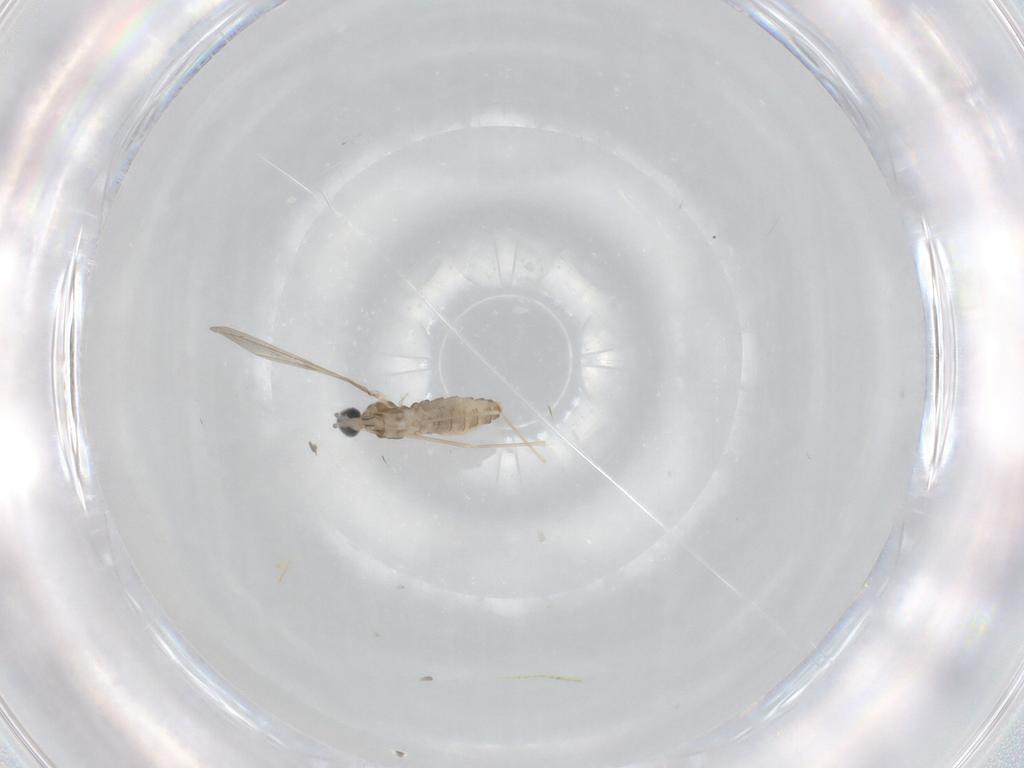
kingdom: Animalia
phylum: Arthropoda
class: Insecta
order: Diptera
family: Cecidomyiidae
